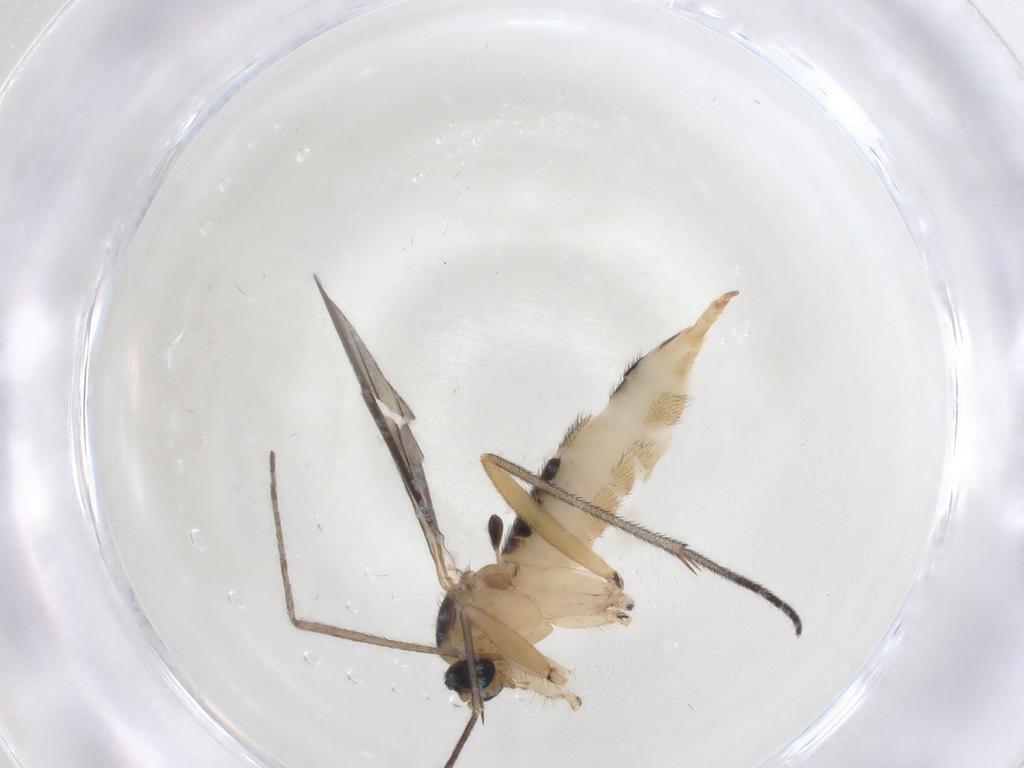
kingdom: Animalia
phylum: Arthropoda
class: Insecta
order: Diptera
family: Sciaridae
